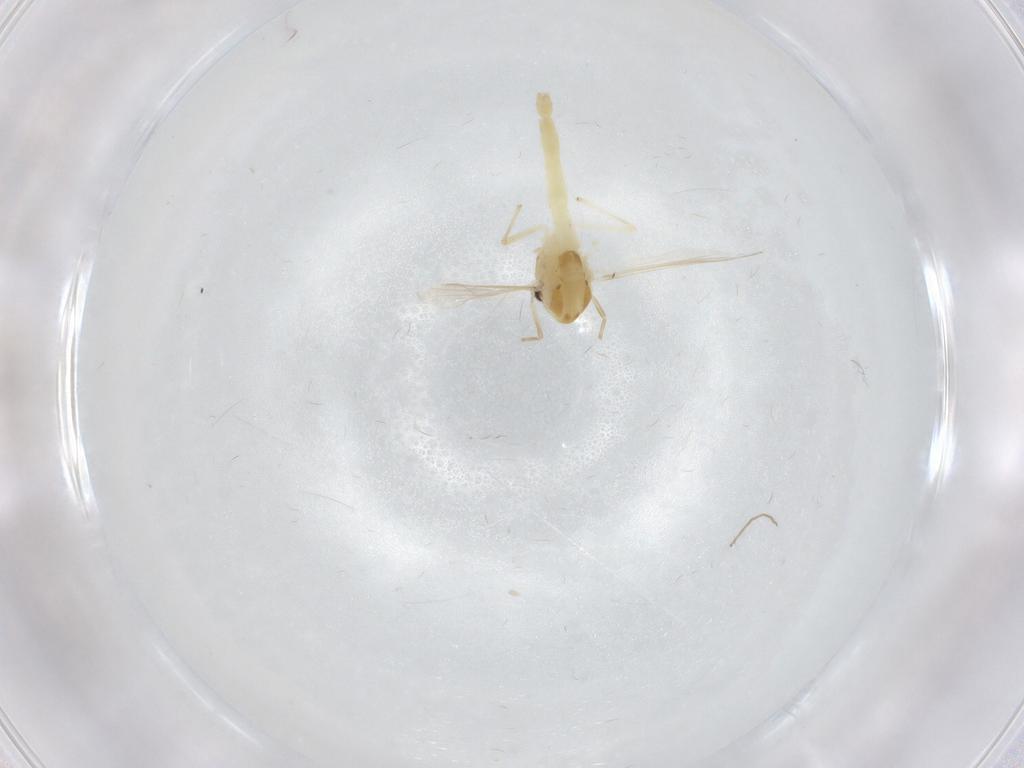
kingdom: Animalia
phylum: Arthropoda
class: Insecta
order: Diptera
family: Chironomidae
